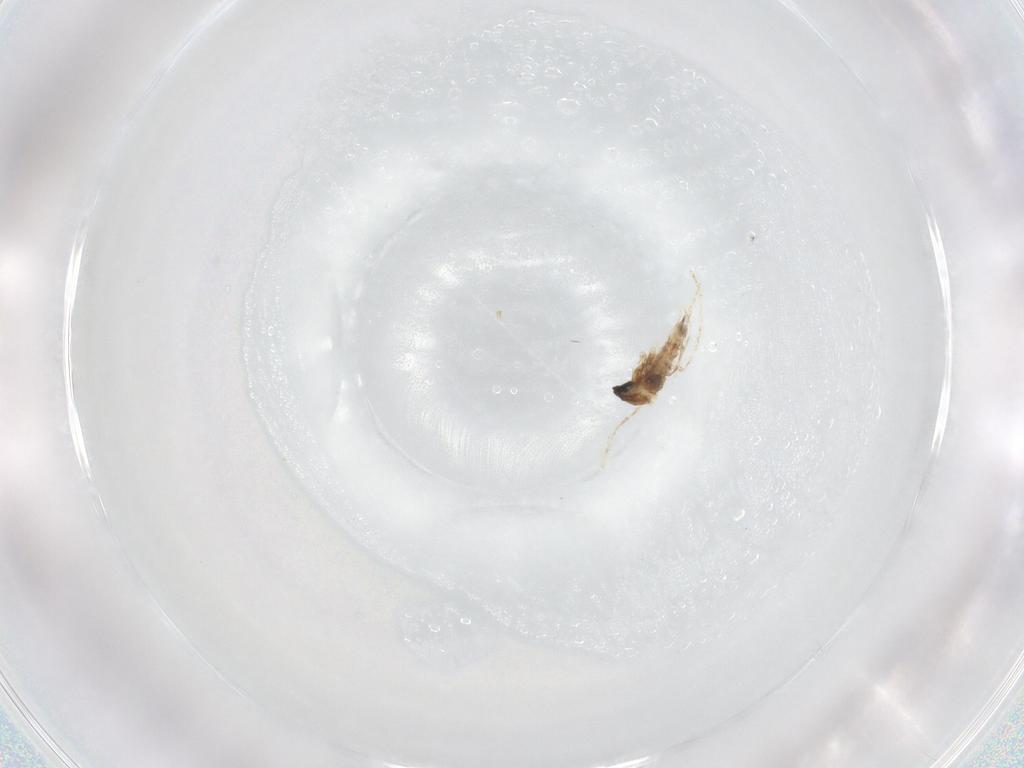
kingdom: Animalia
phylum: Arthropoda
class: Insecta
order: Diptera
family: Cecidomyiidae
